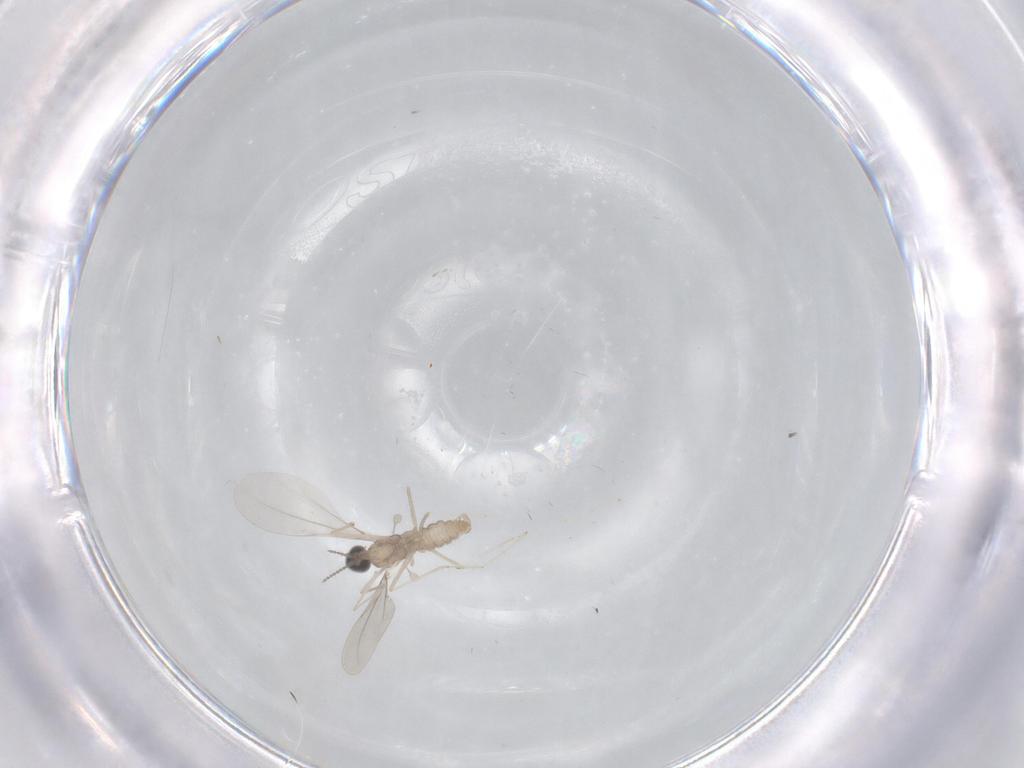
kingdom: Animalia
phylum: Arthropoda
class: Insecta
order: Diptera
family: Cecidomyiidae
